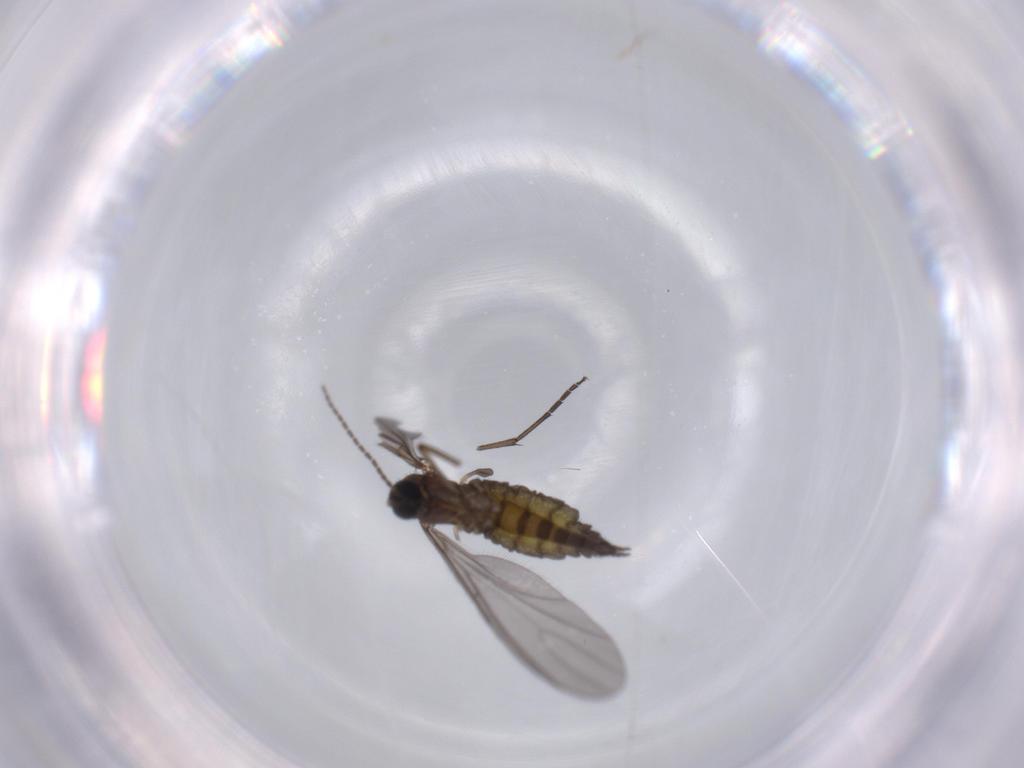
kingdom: Animalia
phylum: Arthropoda
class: Insecta
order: Diptera
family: Sciaridae
